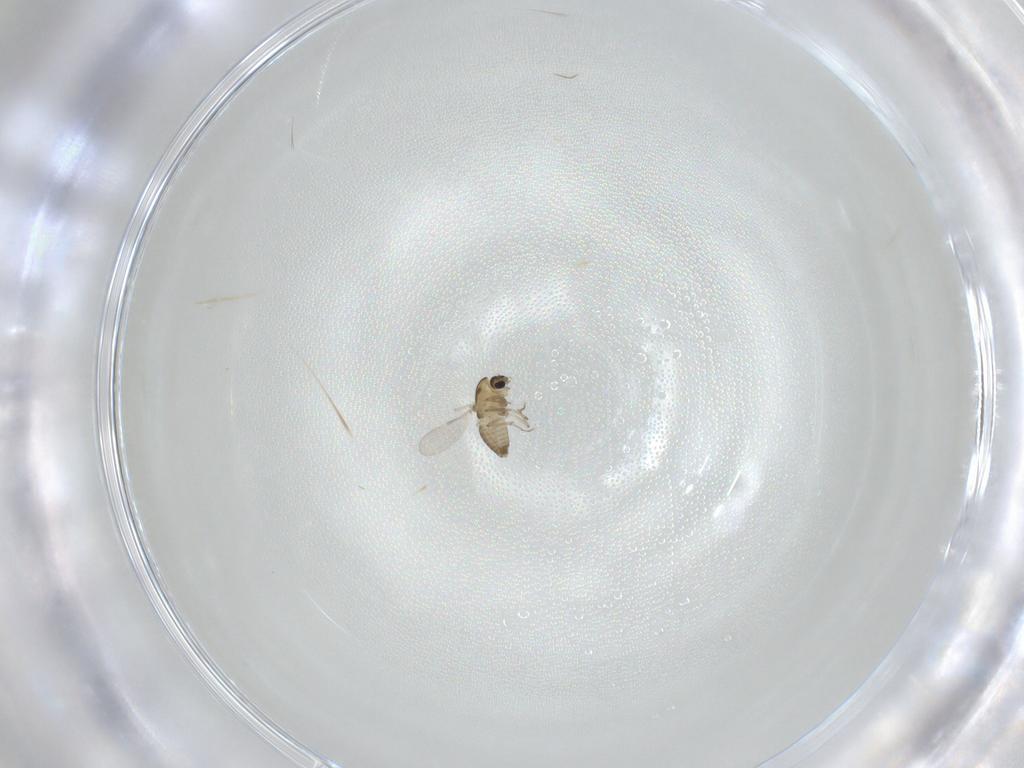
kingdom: Animalia
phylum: Arthropoda
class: Insecta
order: Diptera
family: Chironomidae
